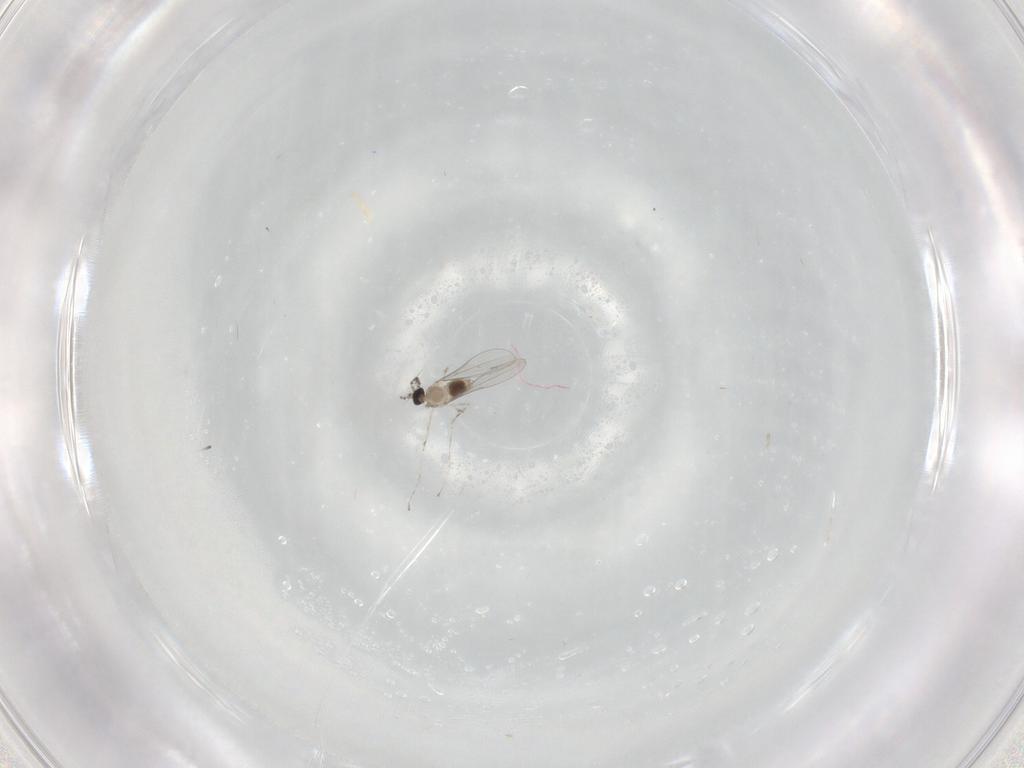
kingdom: Animalia
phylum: Arthropoda
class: Insecta
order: Diptera
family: Cecidomyiidae
